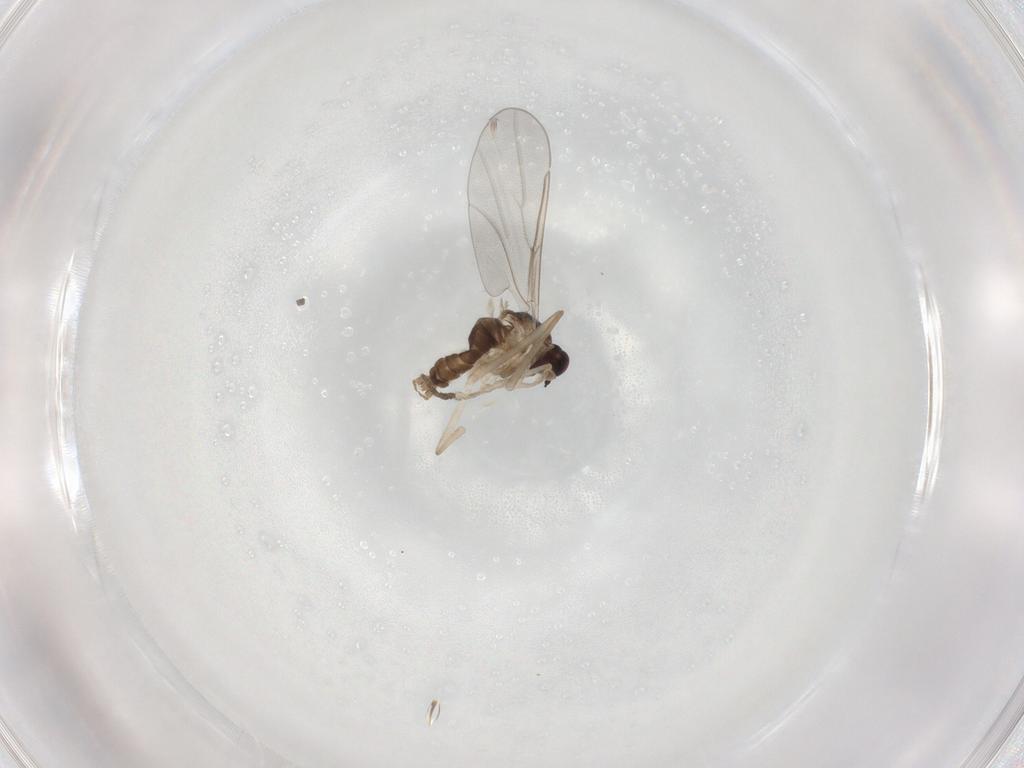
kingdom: Animalia
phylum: Arthropoda
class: Insecta
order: Diptera
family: Cecidomyiidae
